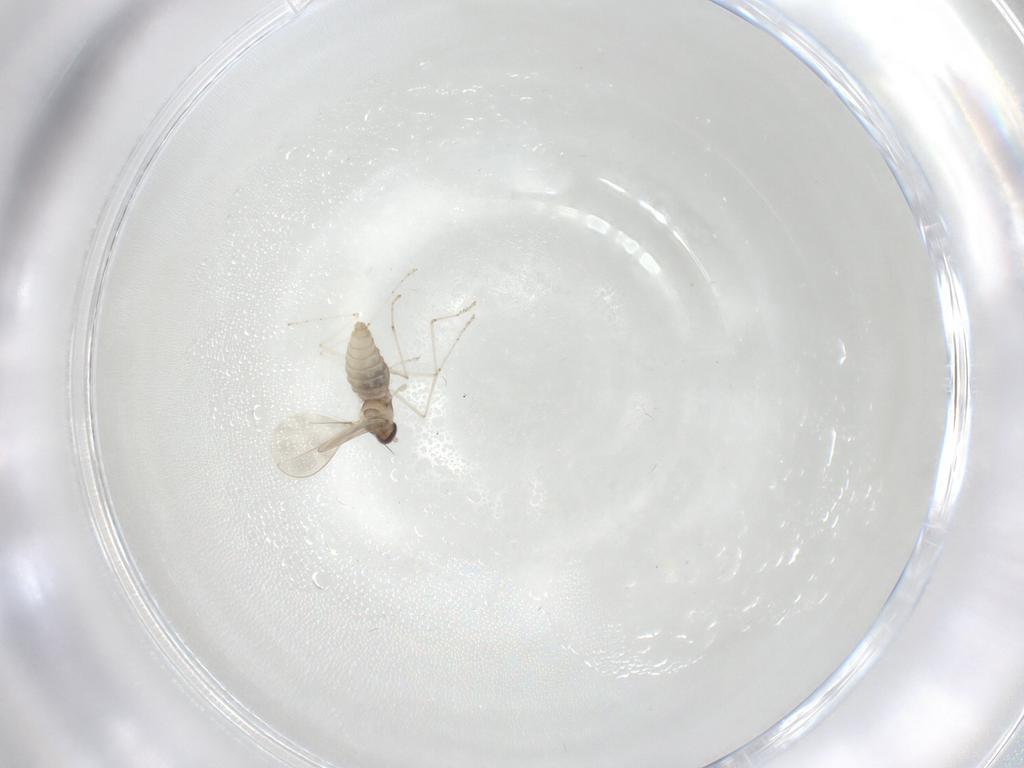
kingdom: Animalia
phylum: Arthropoda
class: Insecta
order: Diptera
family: Cecidomyiidae
